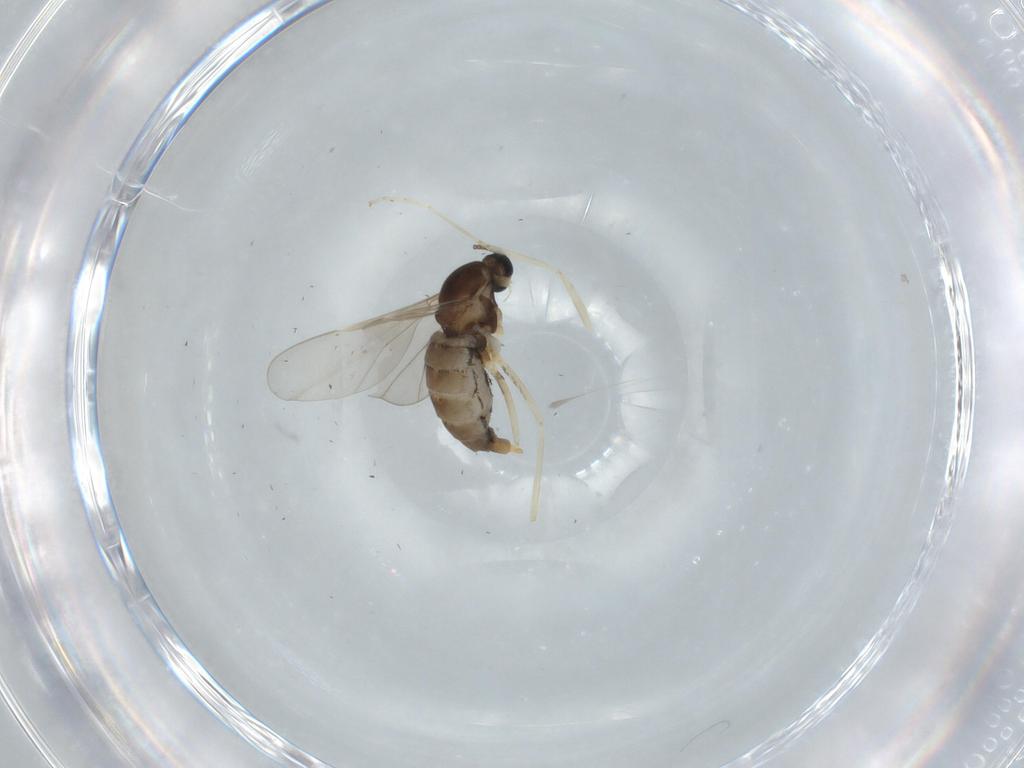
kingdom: Animalia
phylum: Arthropoda
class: Insecta
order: Diptera
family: Cecidomyiidae
